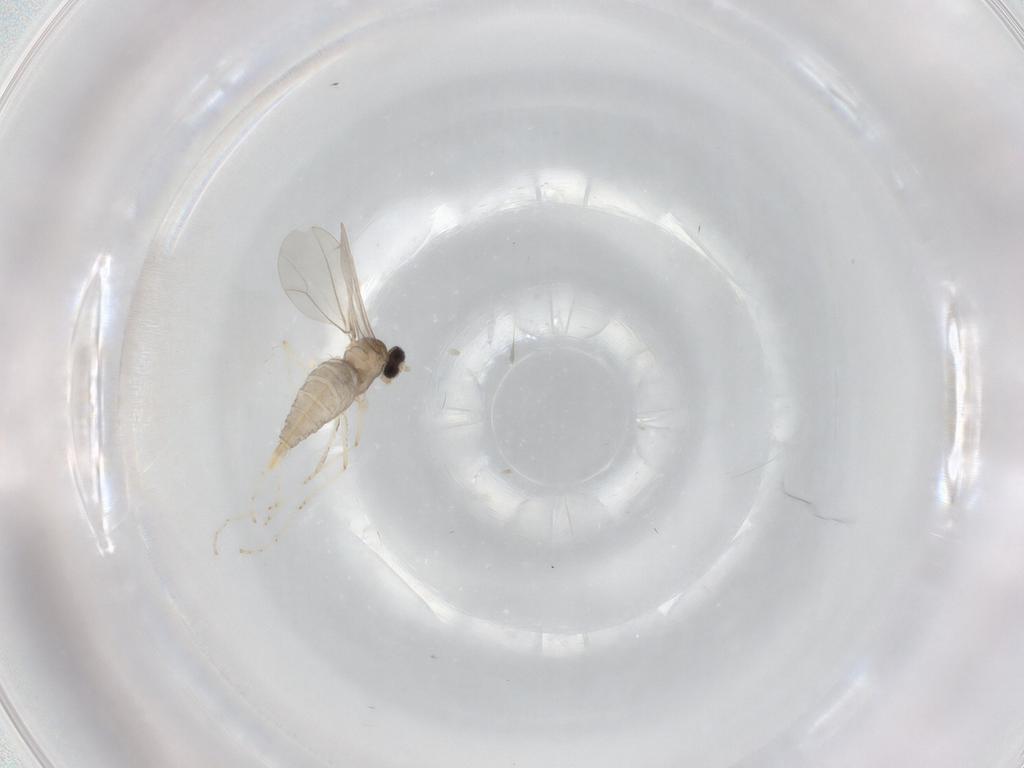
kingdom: Animalia
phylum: Arthropoda
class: Insecta
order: Diptera
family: Cecidomyiidae
